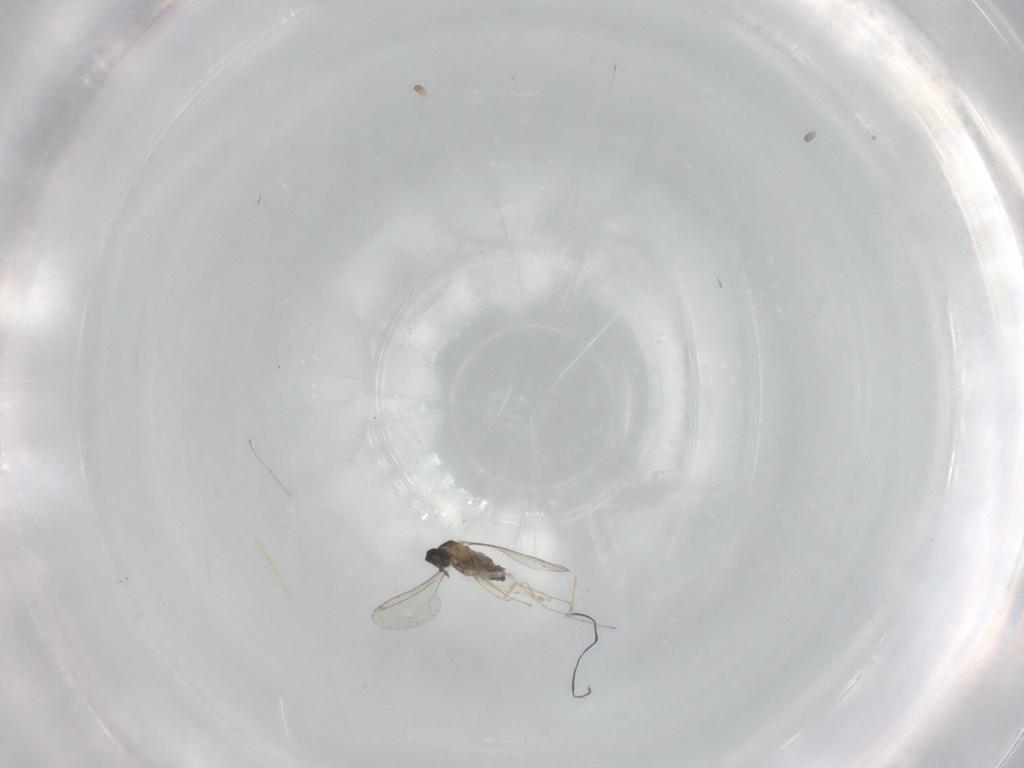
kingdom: Animalia
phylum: Arthropoda
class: Insecta
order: Diptera
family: Cecidomyiidae
